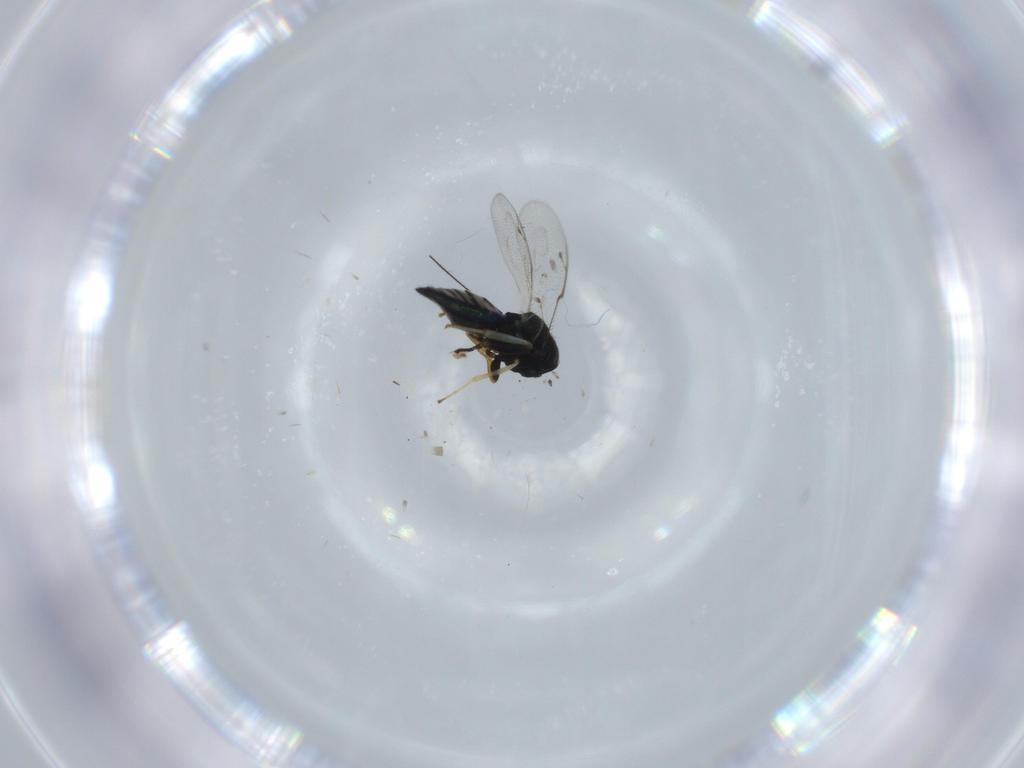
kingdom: Animalia
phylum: Arthropoda
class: Insecta
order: Hymenoptera
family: Pteromalidae
